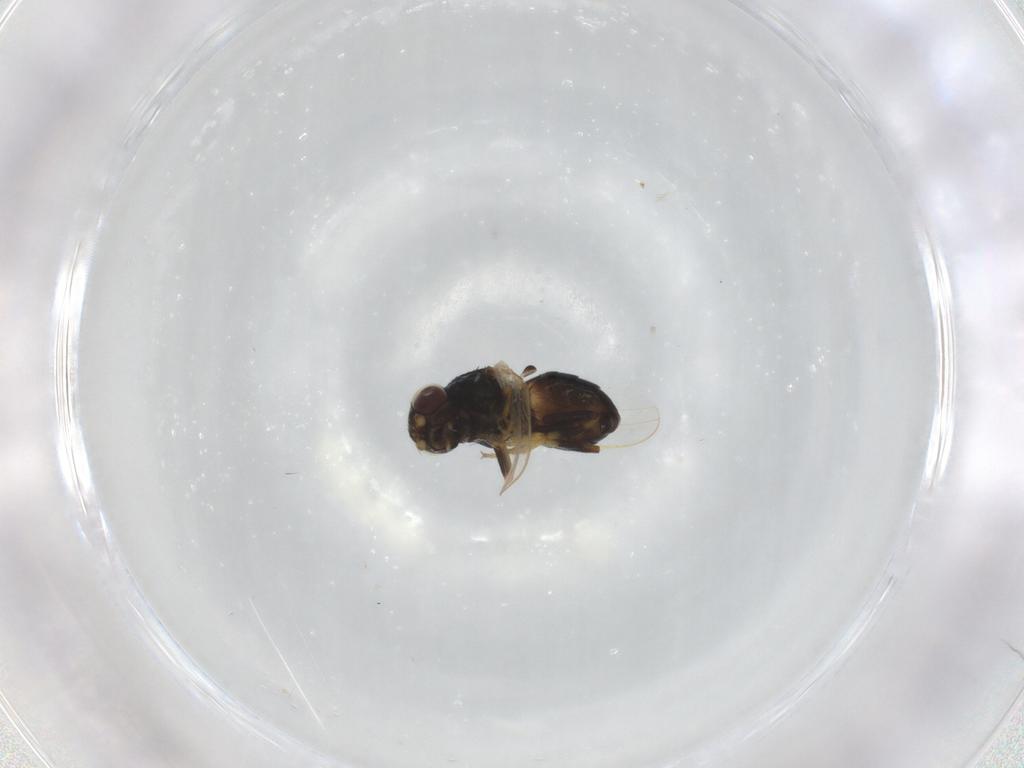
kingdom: Animalia
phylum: Arthropoda
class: Insecta
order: Diptera
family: Chloropidae
